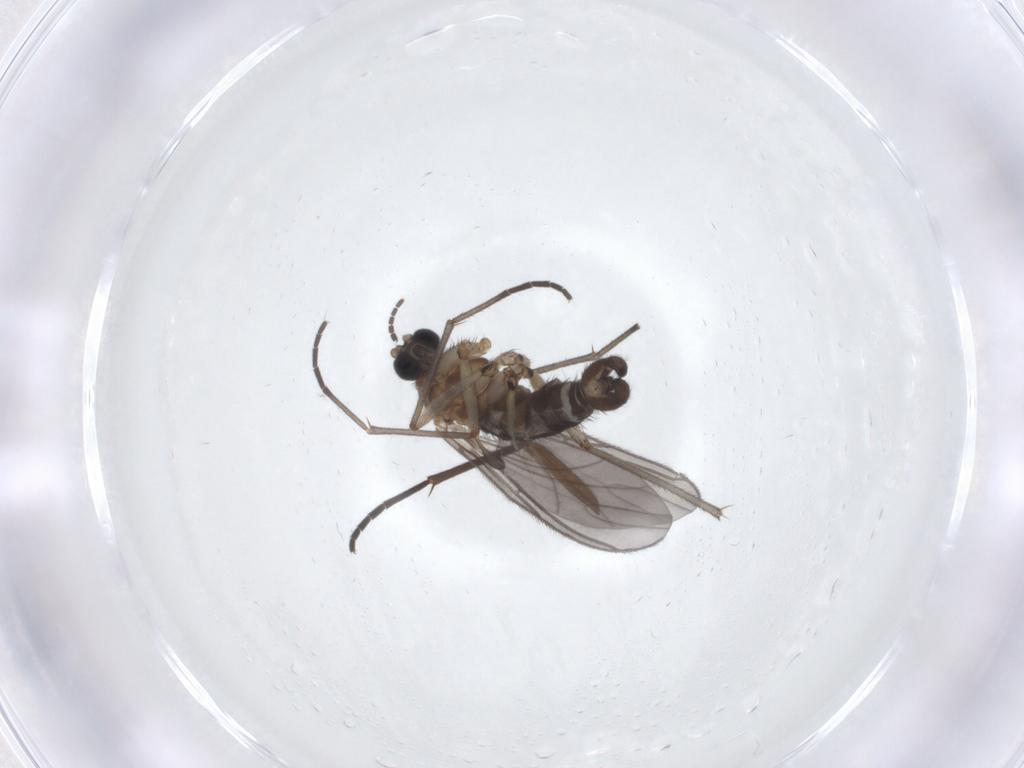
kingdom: Animalia
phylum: Arthropoda
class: Insecta
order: Diptera
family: Sciaridae
